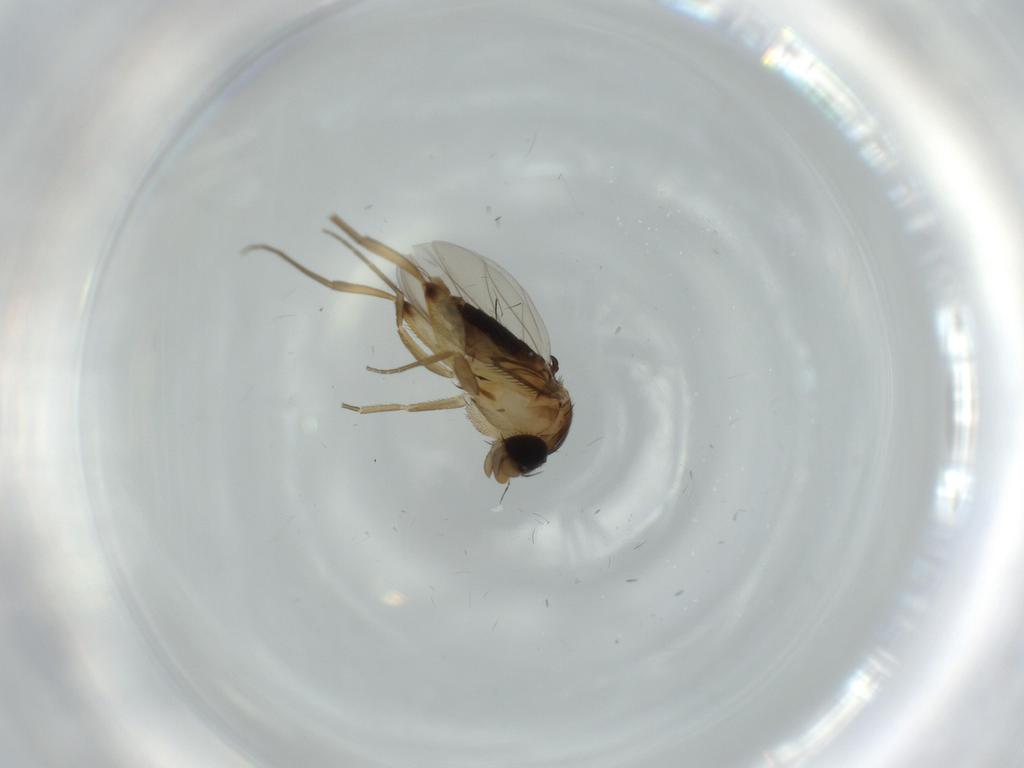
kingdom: Animalia
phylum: Arthropoda
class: Insecta
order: Diptera
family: Phoridae
